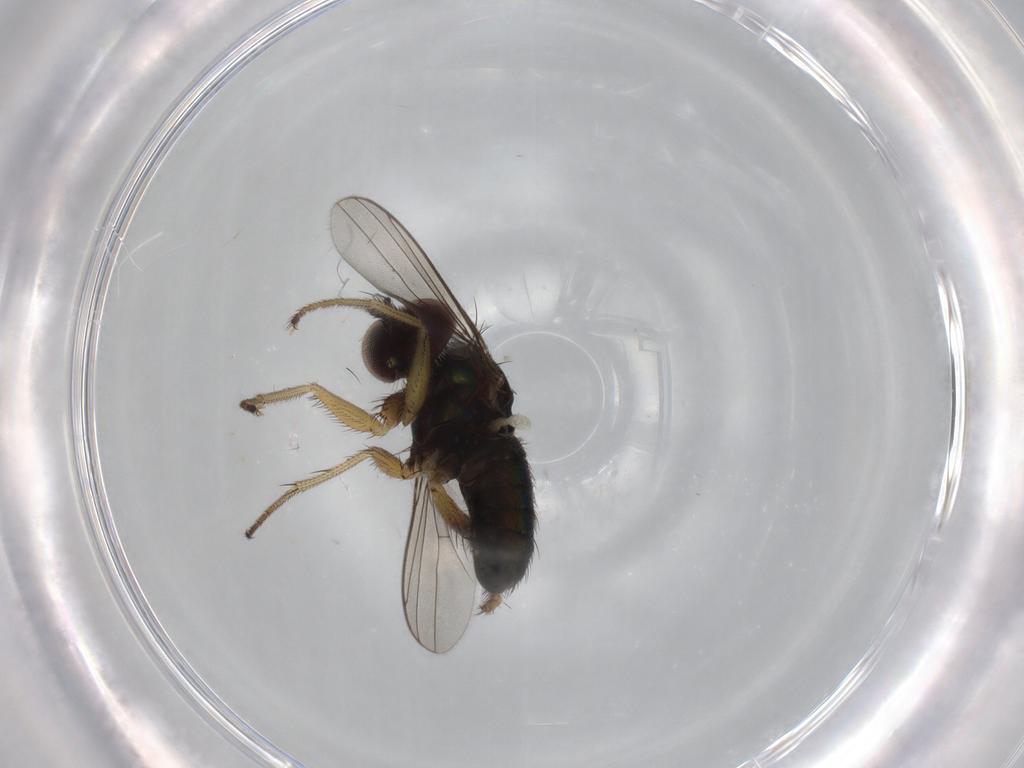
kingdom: Animalia
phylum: Arthropoda
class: Insecta
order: Diptera
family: Dolichopodidae
